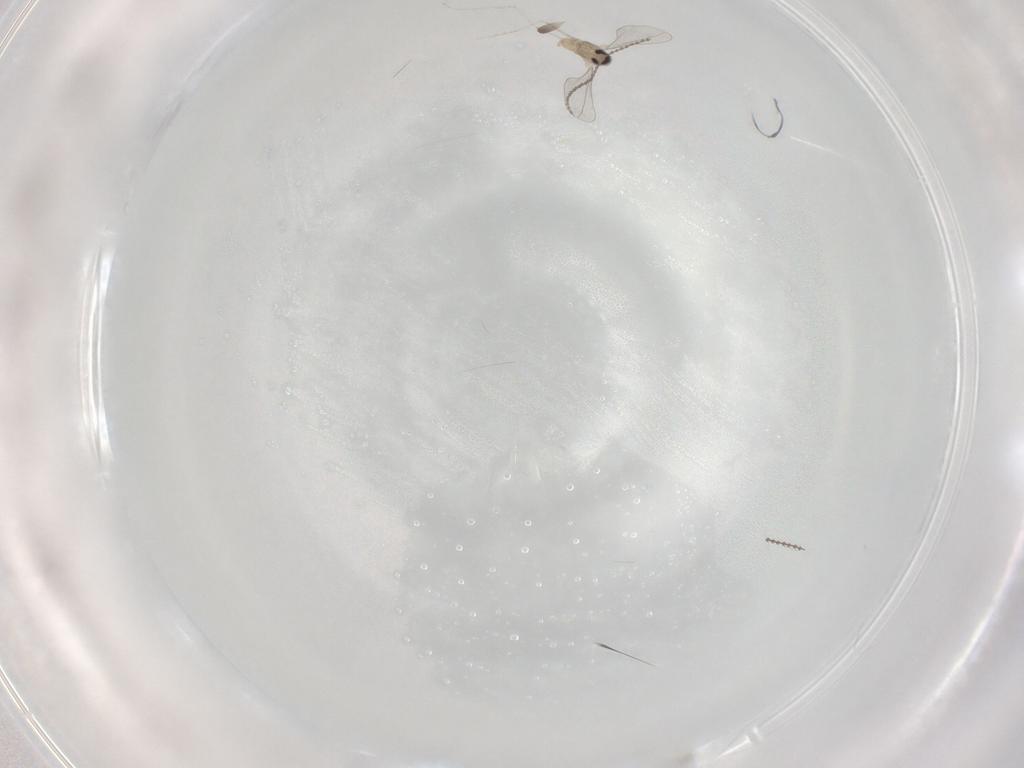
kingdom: Animalia
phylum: Arthropoda
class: Insecta
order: Diptera
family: Cecidomyiidae
